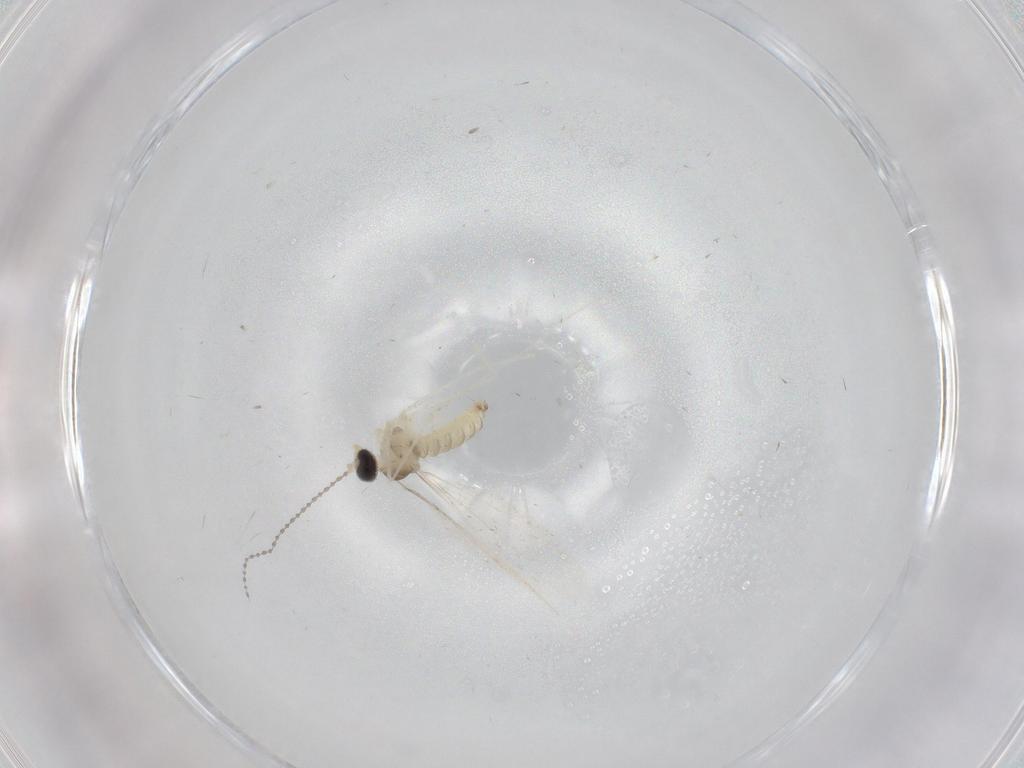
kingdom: Animalia
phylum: Arthropoda
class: Insecta
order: Diptera
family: Cecidomyiidae
